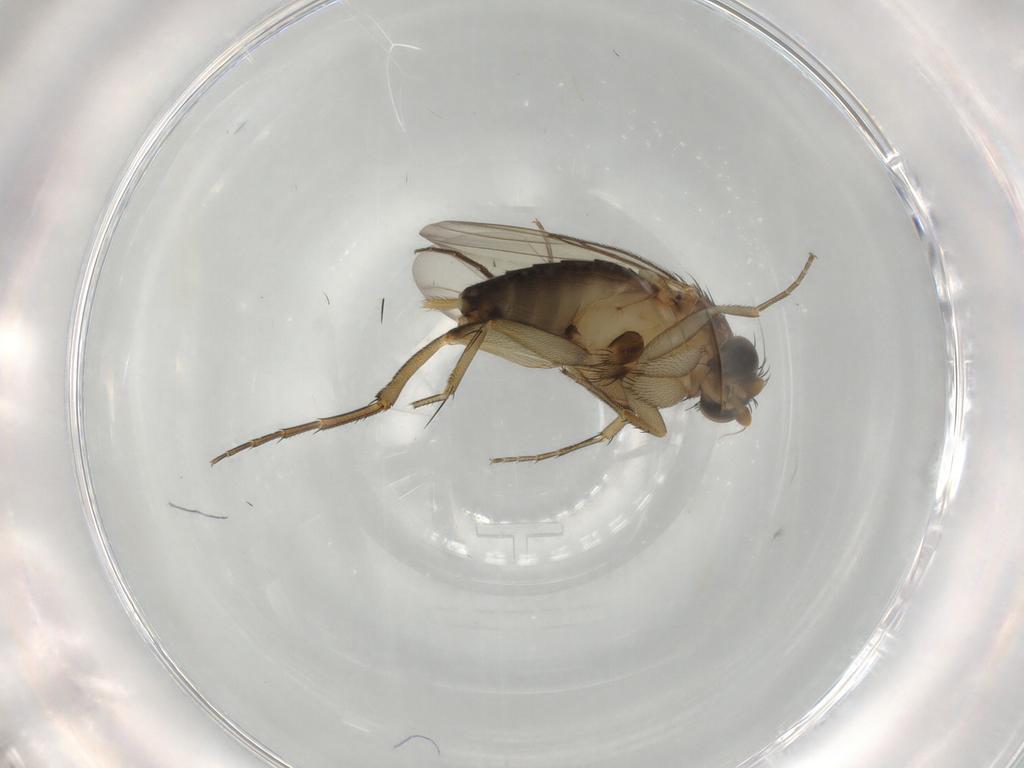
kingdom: Animalia
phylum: Arthropoda
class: Insecta
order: Diptera
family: Phoridae
